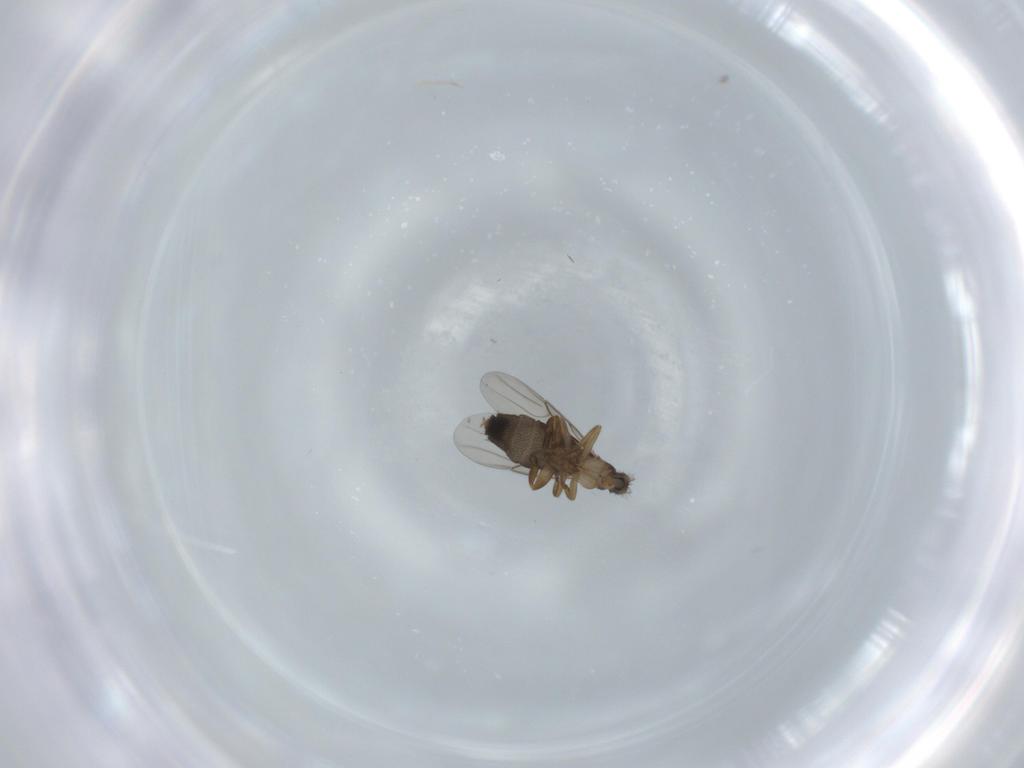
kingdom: Animalia
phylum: Arthropoda
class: Insecta
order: Diptera
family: Phoridae
